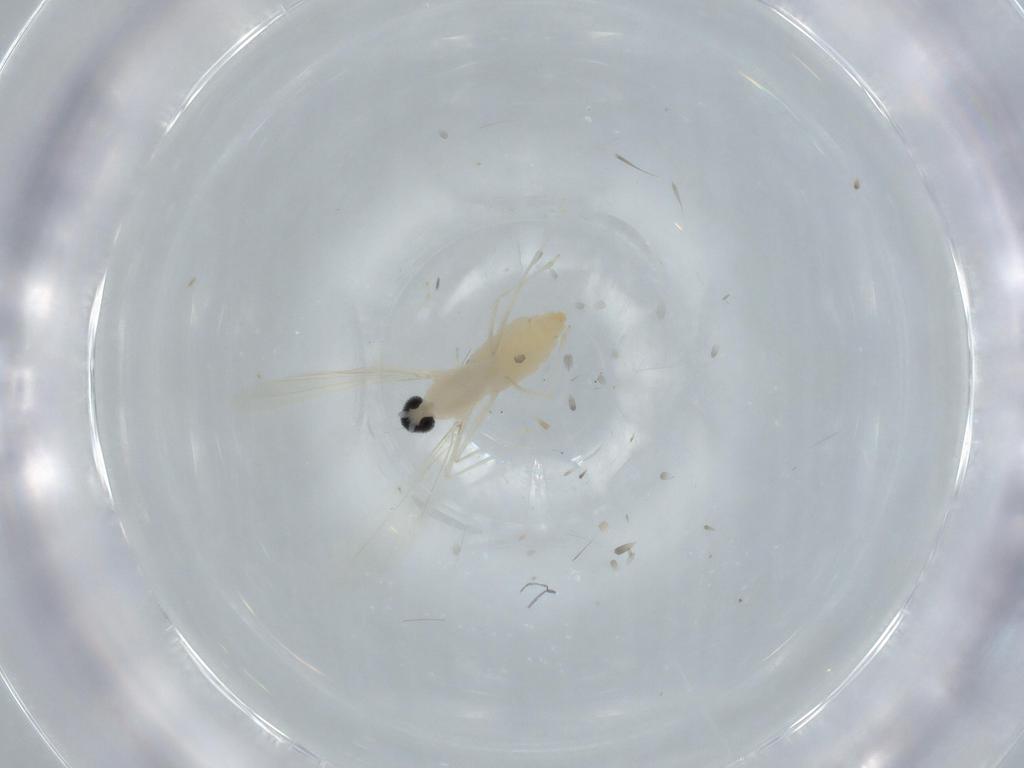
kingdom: Animalia
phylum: Arthropoda
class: Insecta
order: Diptera
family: Cecidomyiidae
